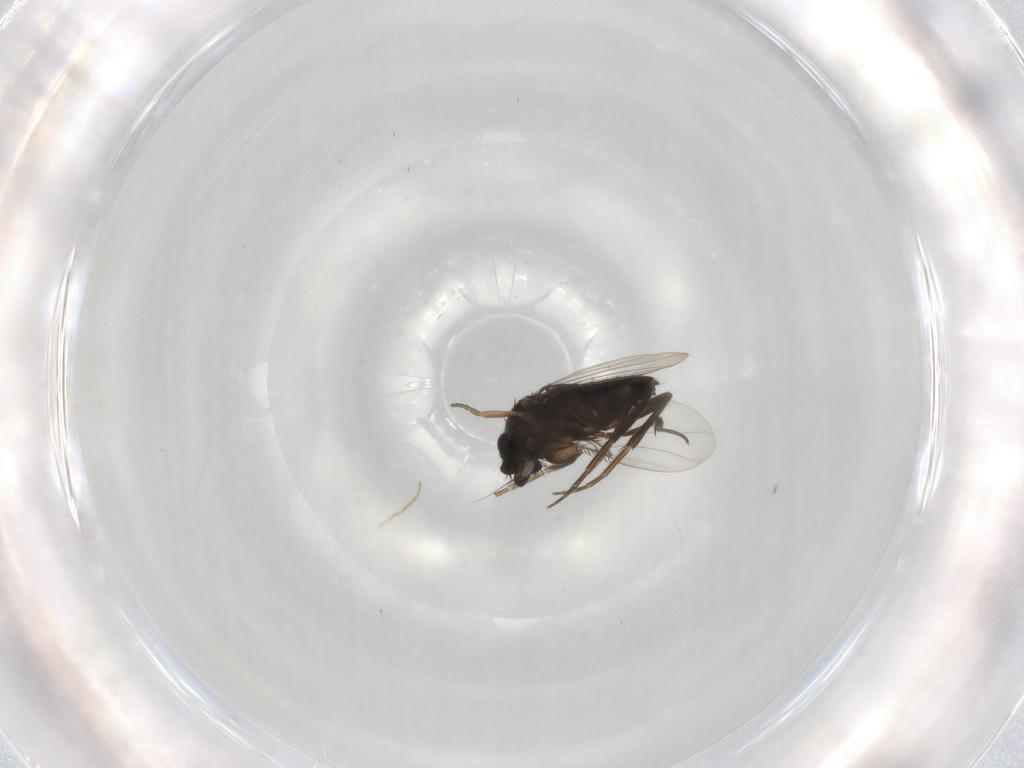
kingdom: Animalia
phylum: Arthropoda
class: Insecta
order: Diptera
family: Chironomidae
